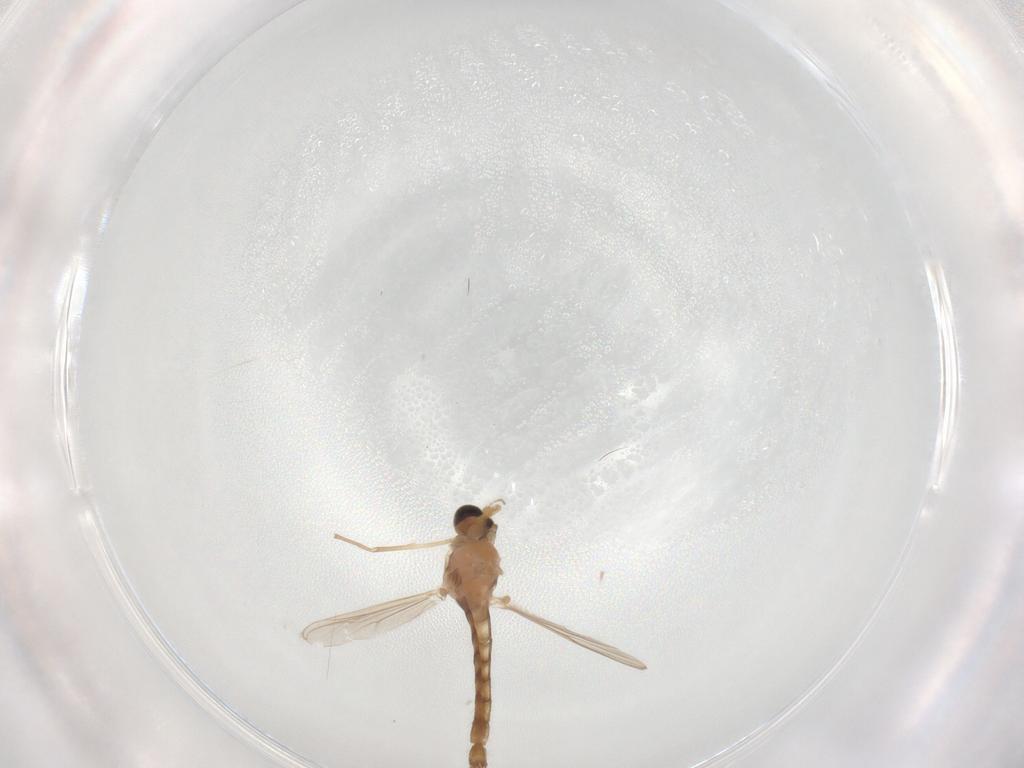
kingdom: Animalia
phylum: Arthropoda
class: Insecta
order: Diptera
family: Chironomidae
